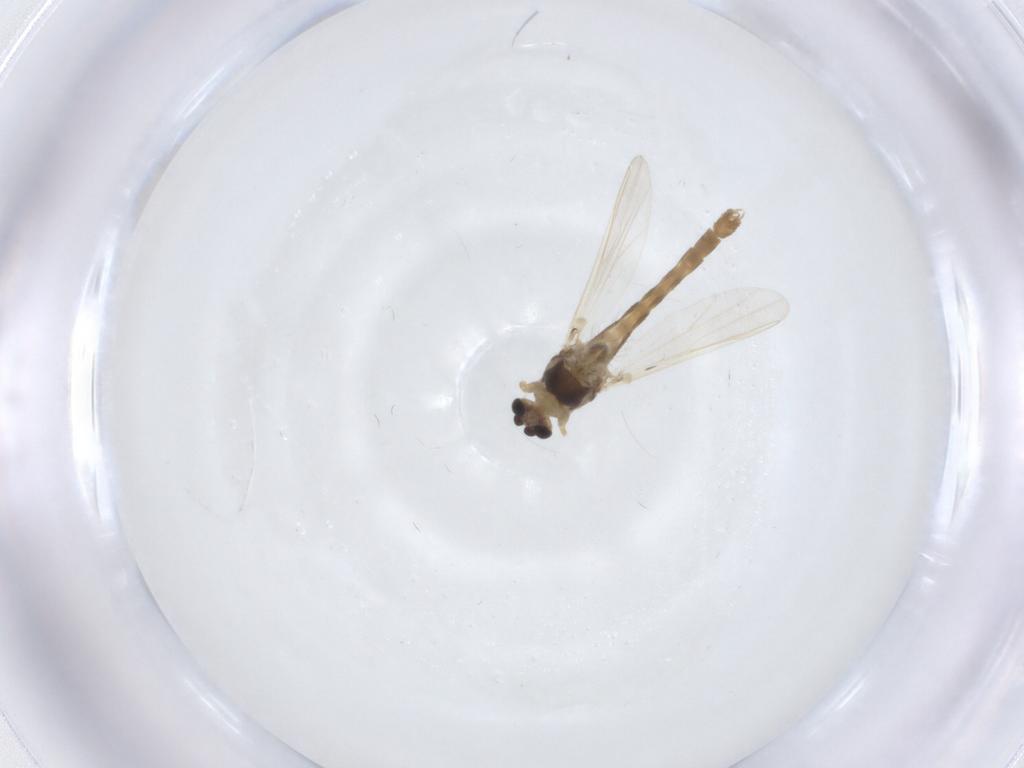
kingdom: Animalia
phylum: Arthropoda
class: Insecta
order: Diptera
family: Chironomidae
